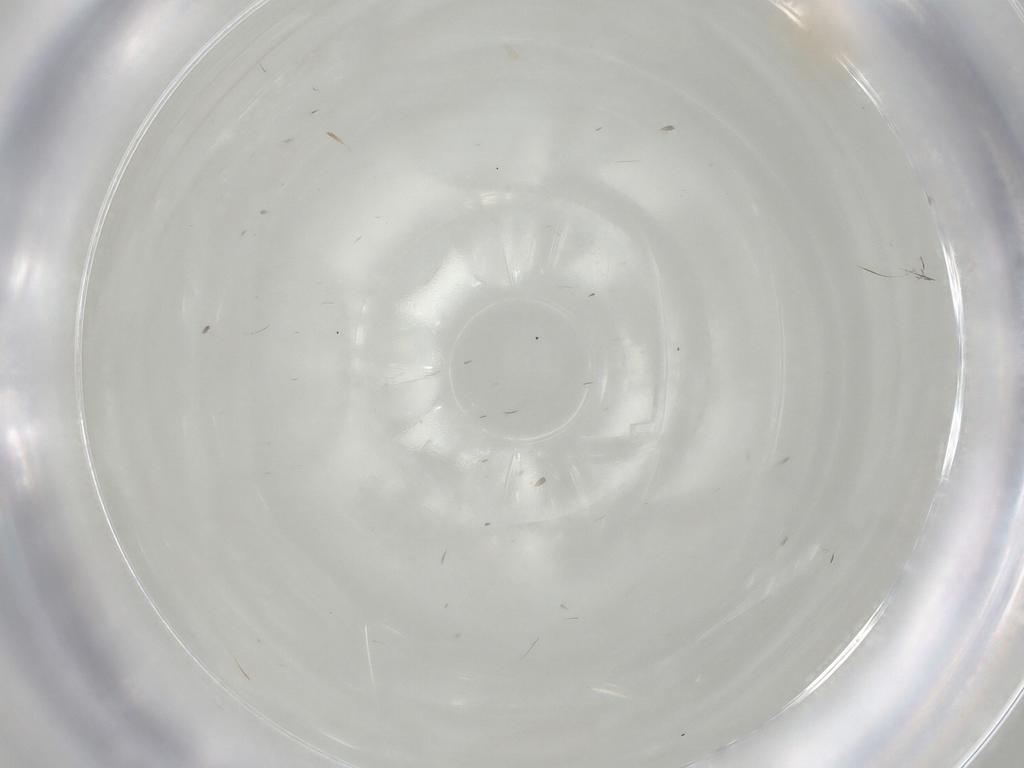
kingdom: Animalia
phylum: Arthropoda
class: Insecta
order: Hemiptera
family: Aleyrodidae
